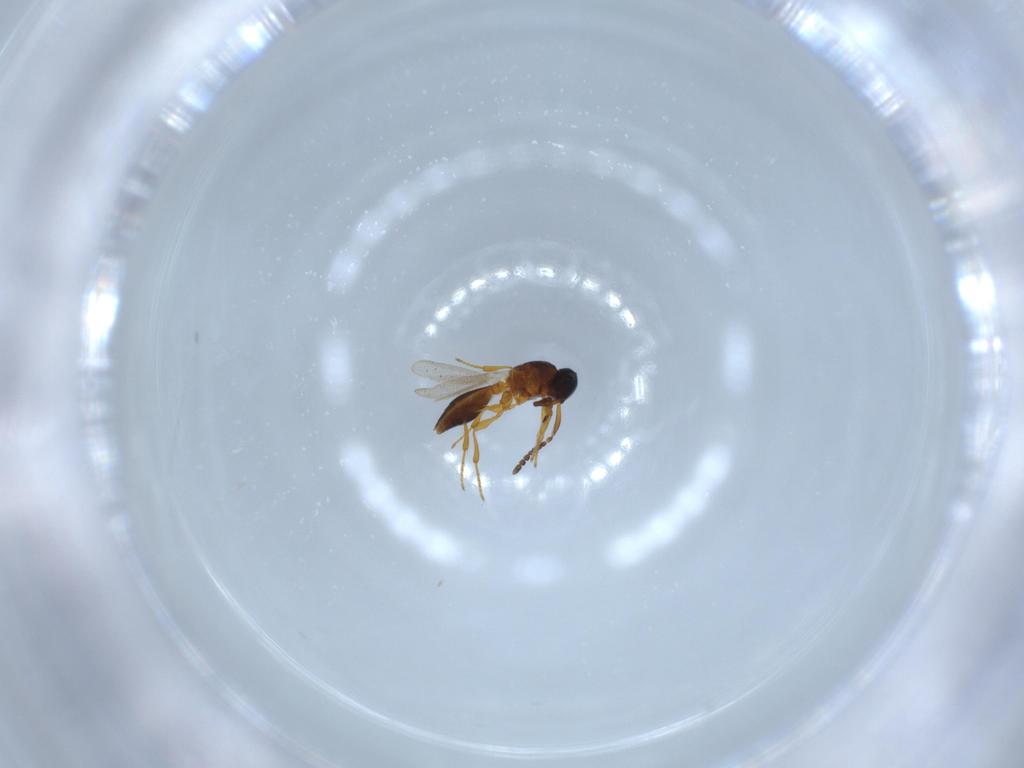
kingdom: Animalia
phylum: Arthropoda
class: Insecta
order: Hymenoptera
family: Platygastridae
